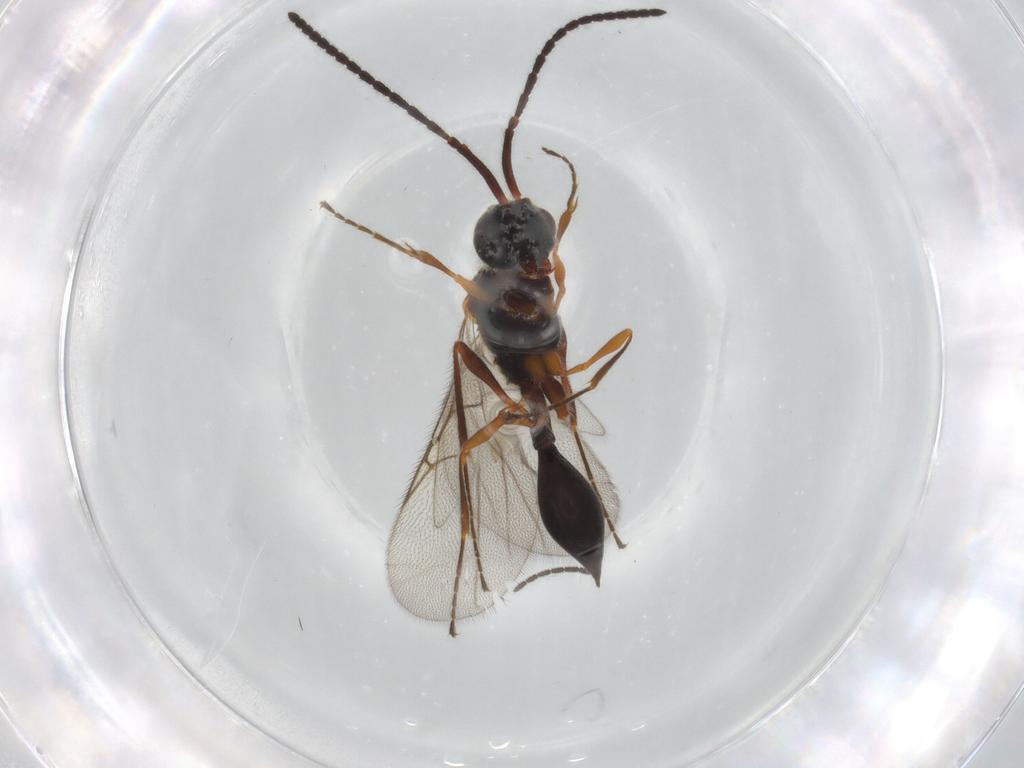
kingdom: Animalia
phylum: Arthropoda
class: Insecta
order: Hymenoptera
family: Diapriidae
